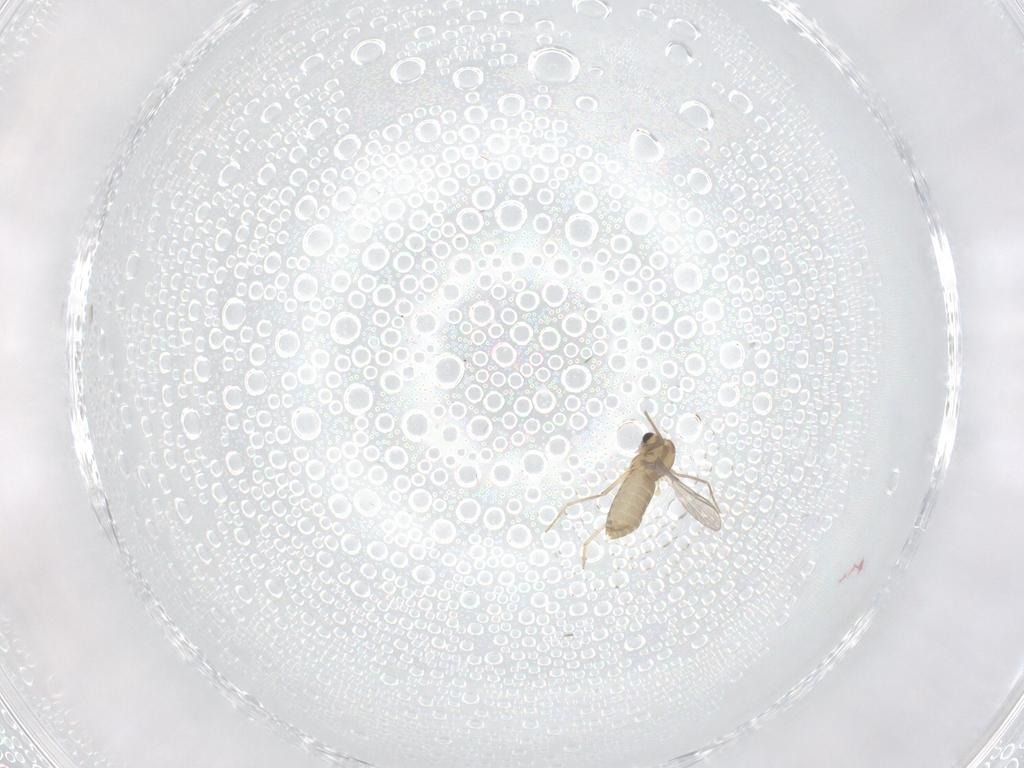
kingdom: Animalia
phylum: Arthropoda
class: Insecta
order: Diptera
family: Chironomidae
